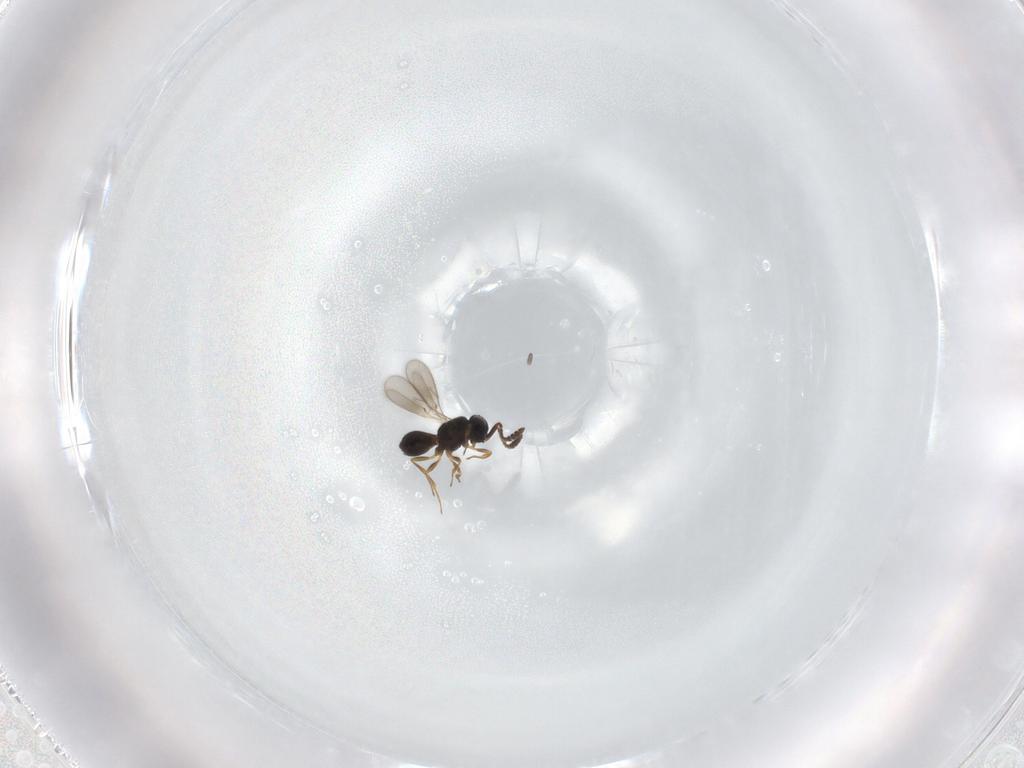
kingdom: Animalia
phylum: Arthropoda
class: Insecta
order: Hymenoptera
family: Scelionidae
